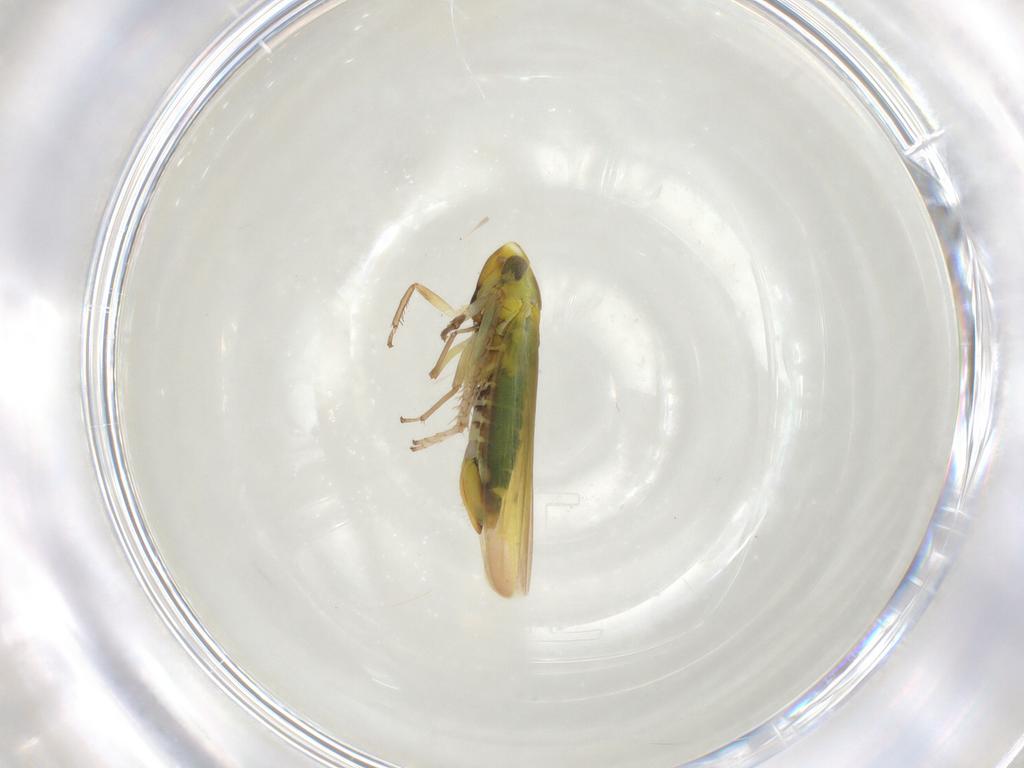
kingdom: Animalia
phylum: Arthropoda
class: Insecta
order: Hemiptera
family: Cicadellidae
